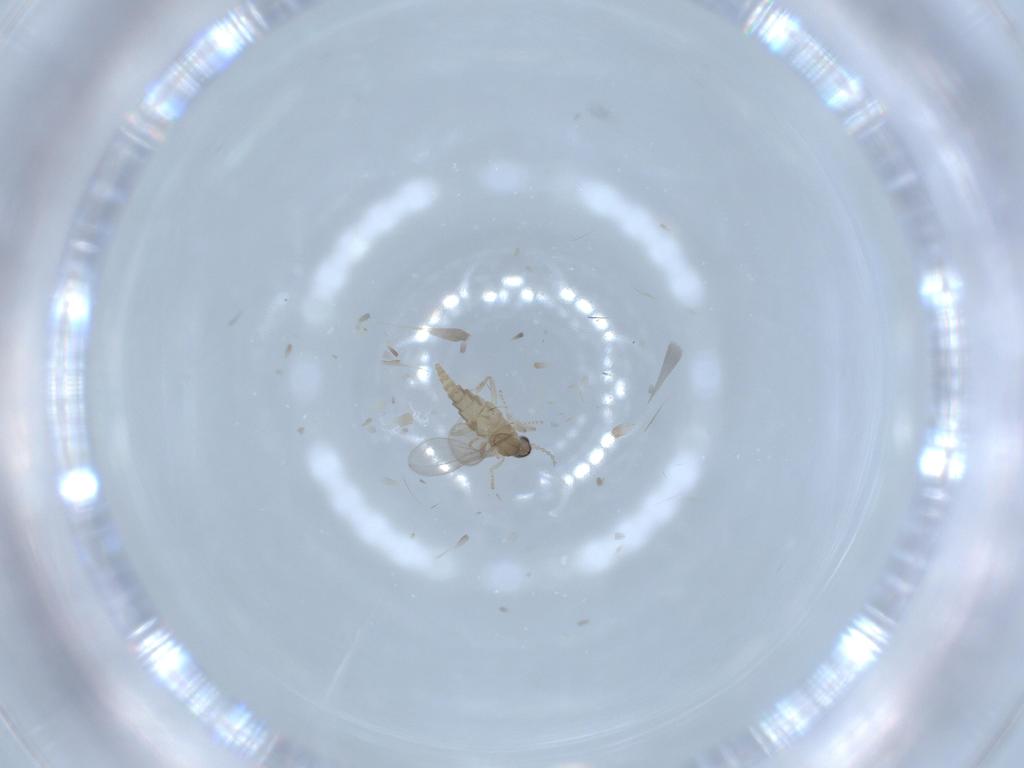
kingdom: Animalia
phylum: Arthropoda
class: Insecta
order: Diptera
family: Cecidomyiidae
